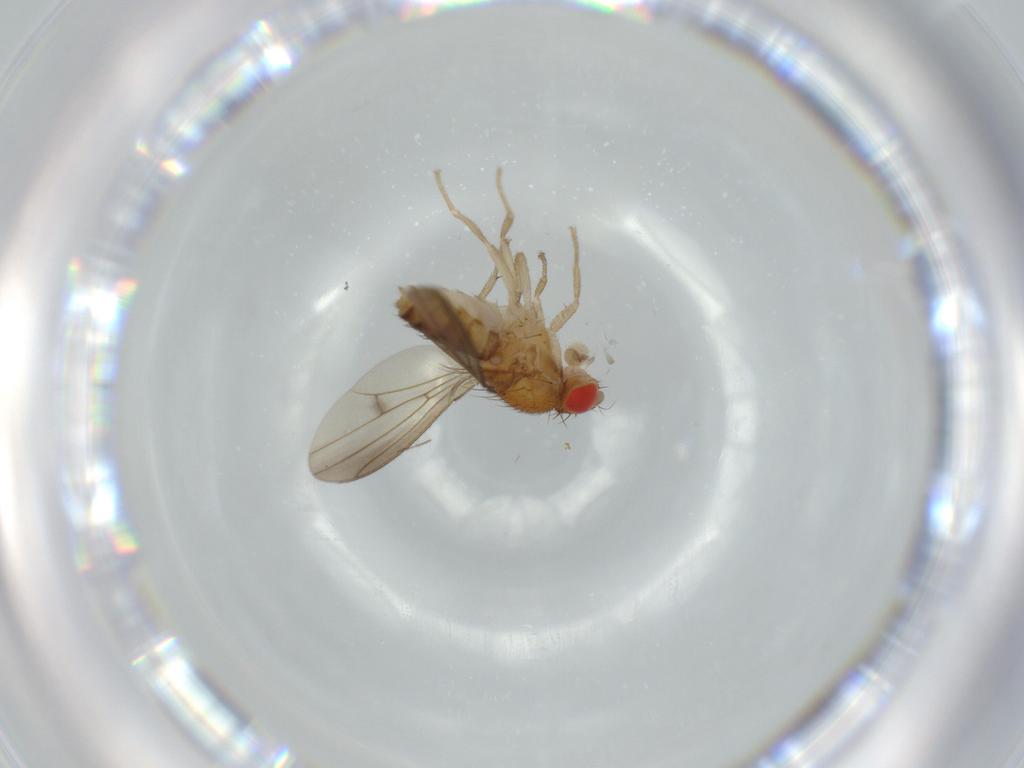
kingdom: Animalia
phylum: Arthropoda
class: Insecta
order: Diptera
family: Drosophilidae
